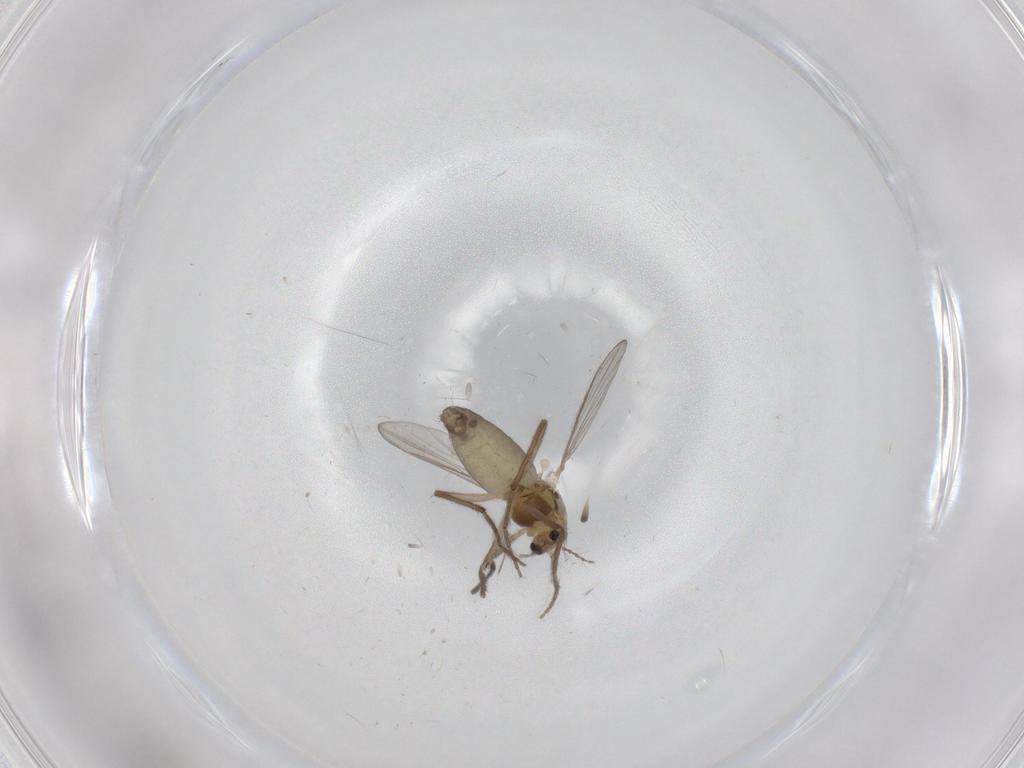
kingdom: Animalia
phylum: Arthropoda
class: Insecta
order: Diptera
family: Chironomidae
